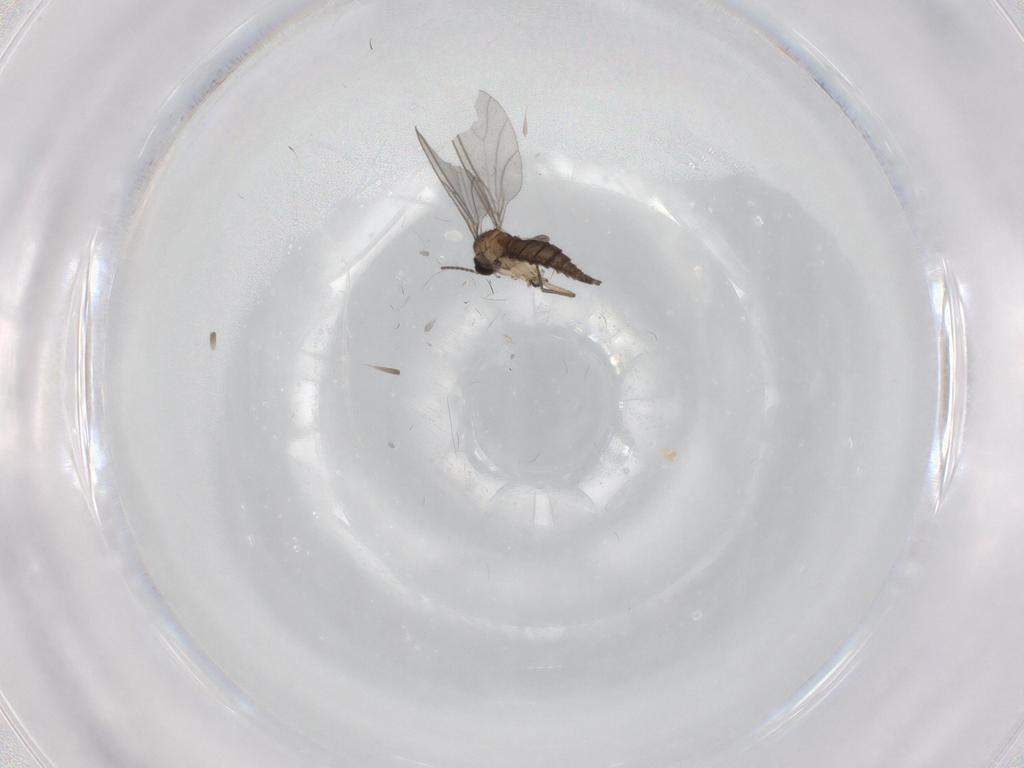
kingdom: Animalia
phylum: Arthropoda
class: Insecta
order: Diptera
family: Sciaridae
